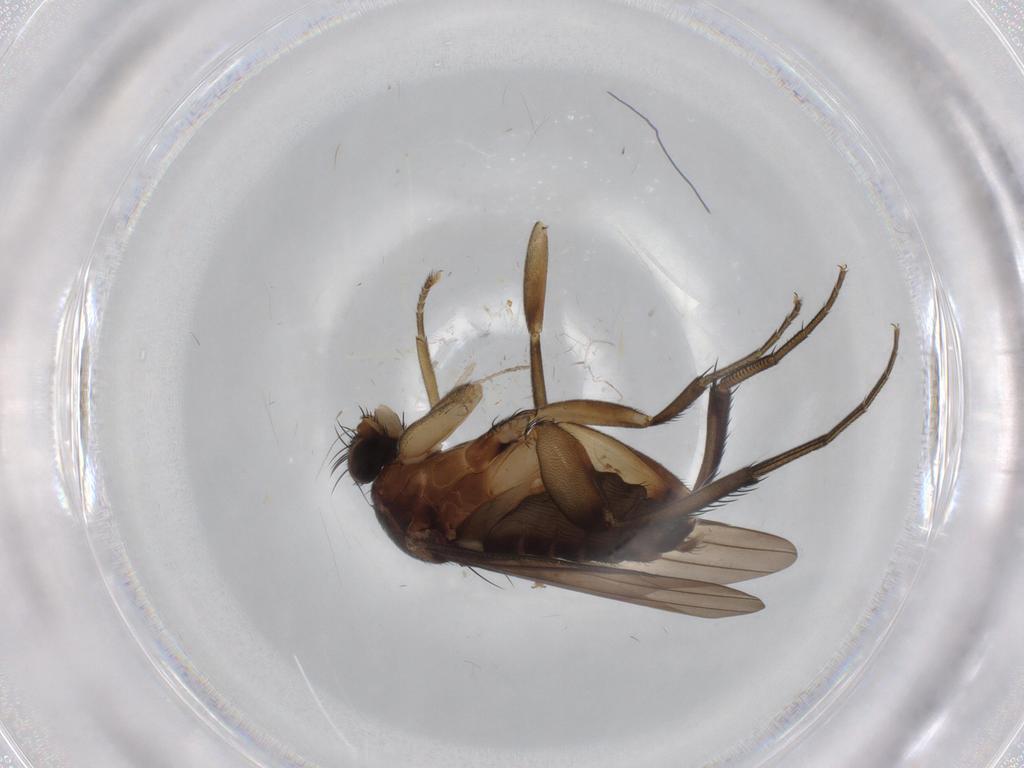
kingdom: Animalia
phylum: Arthropoda
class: Insecta
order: Diptera
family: Phoridae
